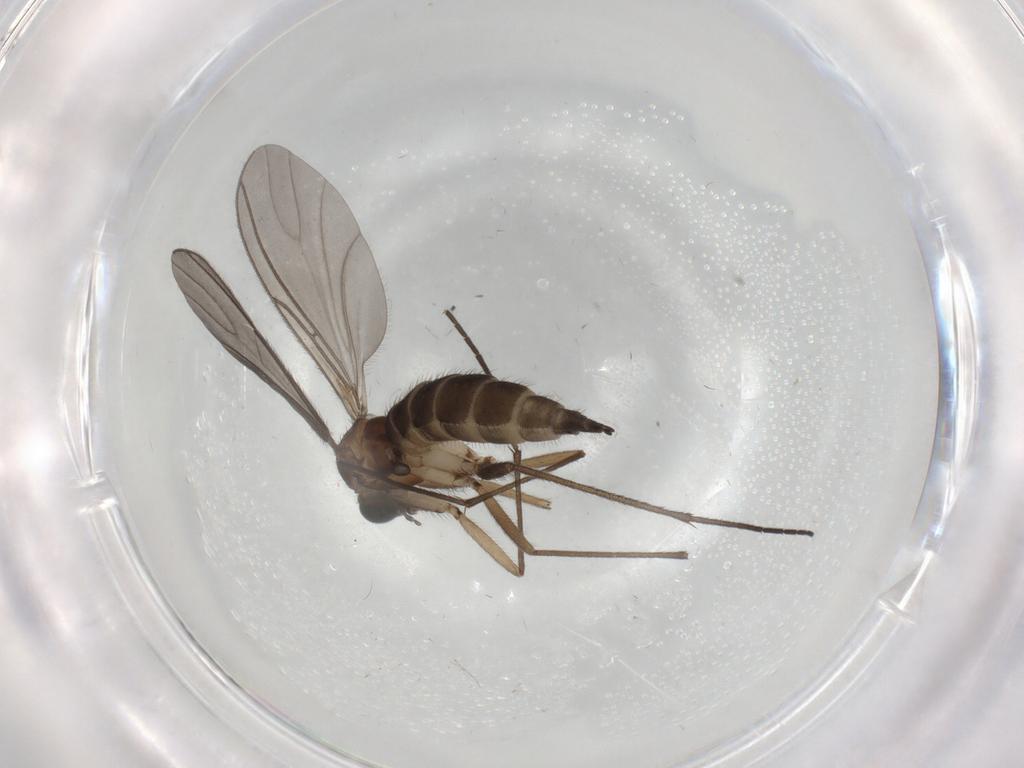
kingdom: Animalia
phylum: Arthropoda
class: Insecta
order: Diptera
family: Sciaridae
